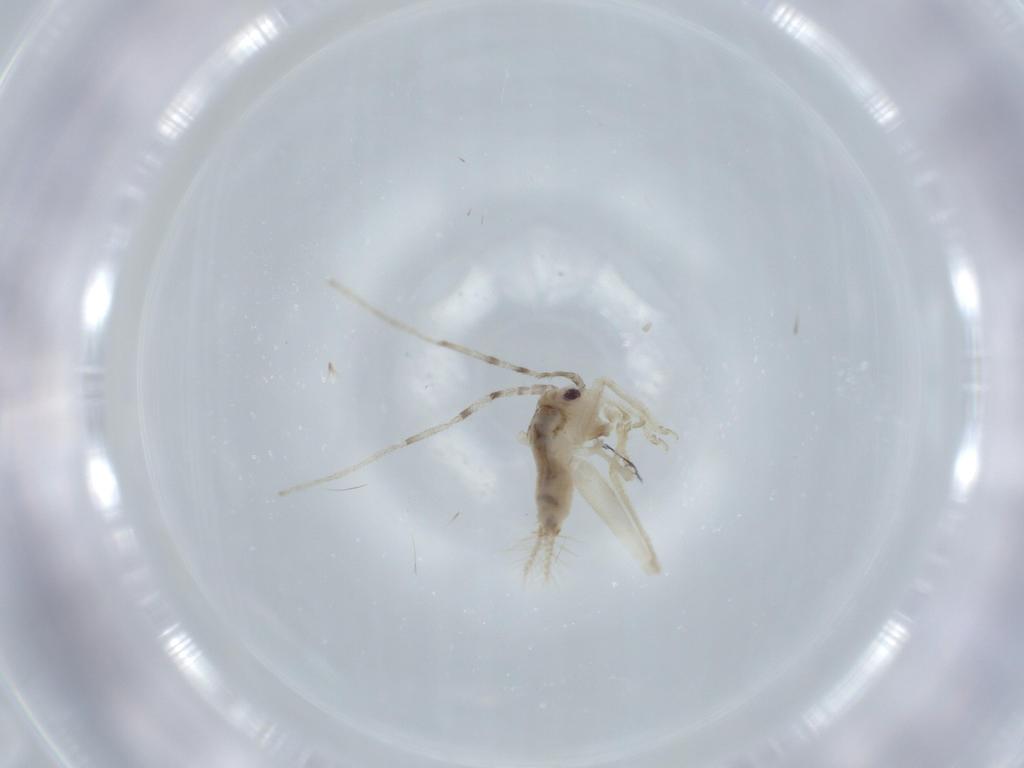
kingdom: Animalia
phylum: Arthropoda
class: Insecta
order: Orthoptera
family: Trigonidiidae
